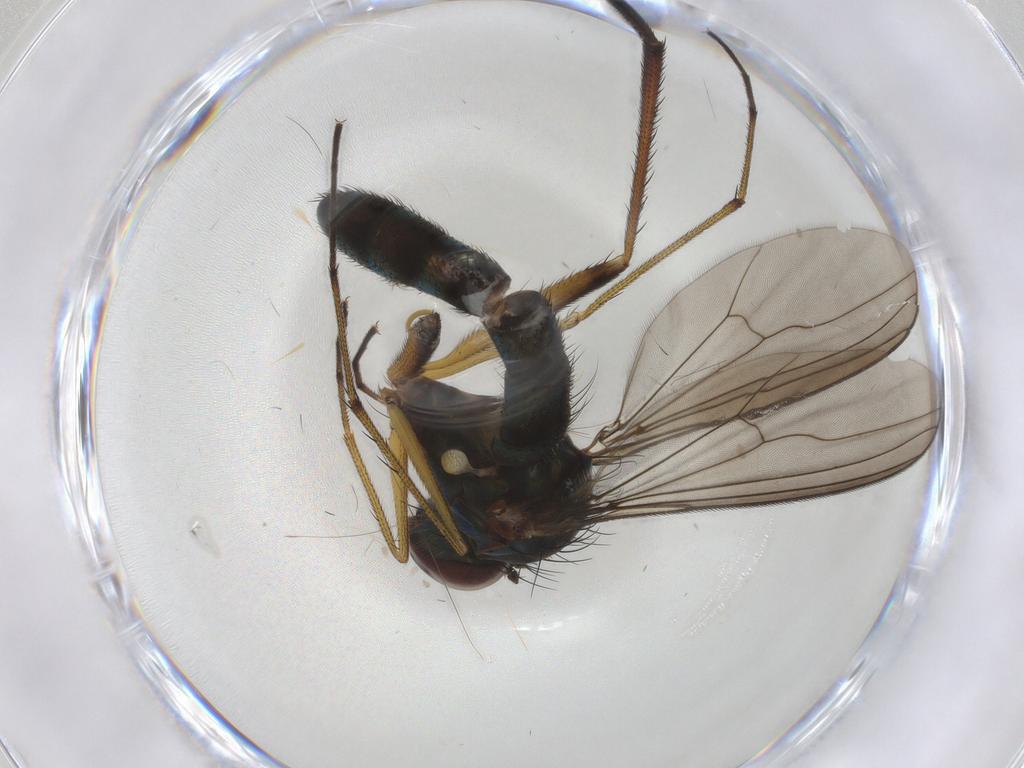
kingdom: Animalia
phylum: Arthropoda
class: Insecta
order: Diptera
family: Dolichopodidae
